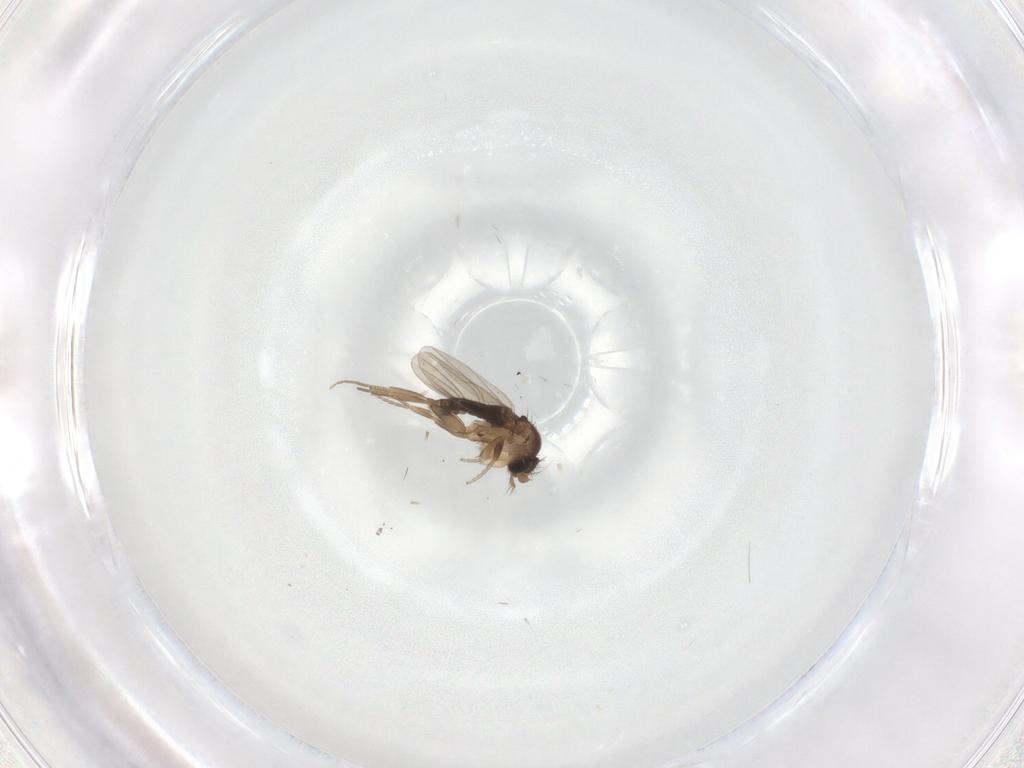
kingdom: Animalia
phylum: Arthropoda
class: Insecta
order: Diptera
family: Phoridae
